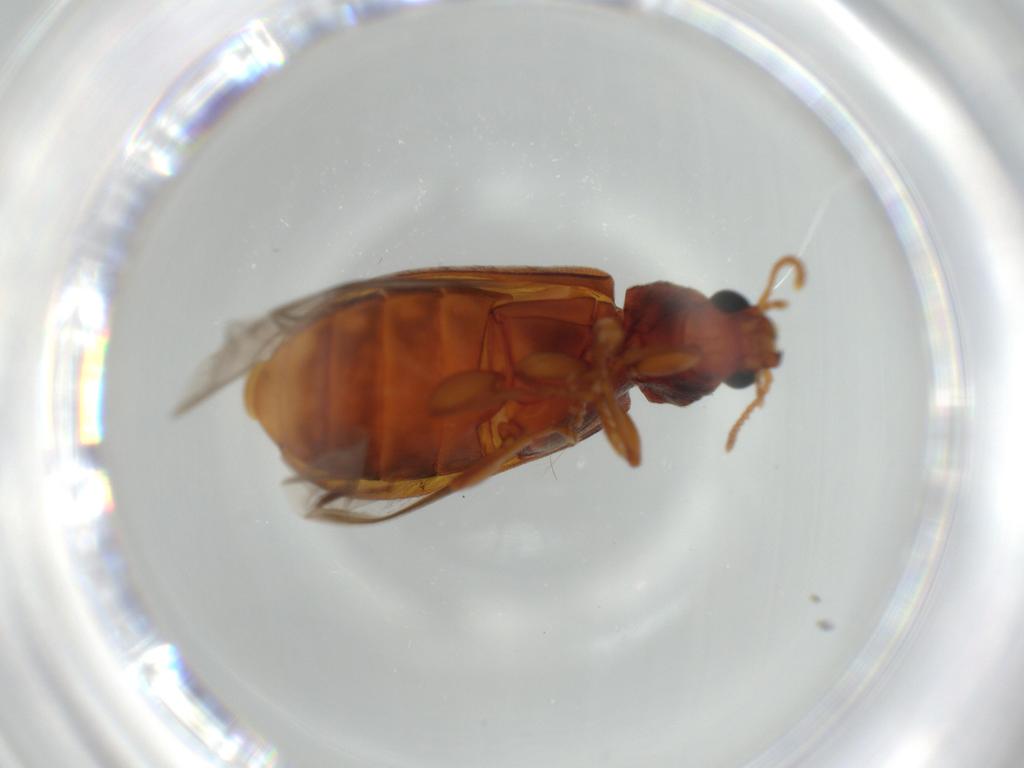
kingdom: Animalia
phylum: Arthropoda
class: Insecta
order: Coleoptera
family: Mycteridae
